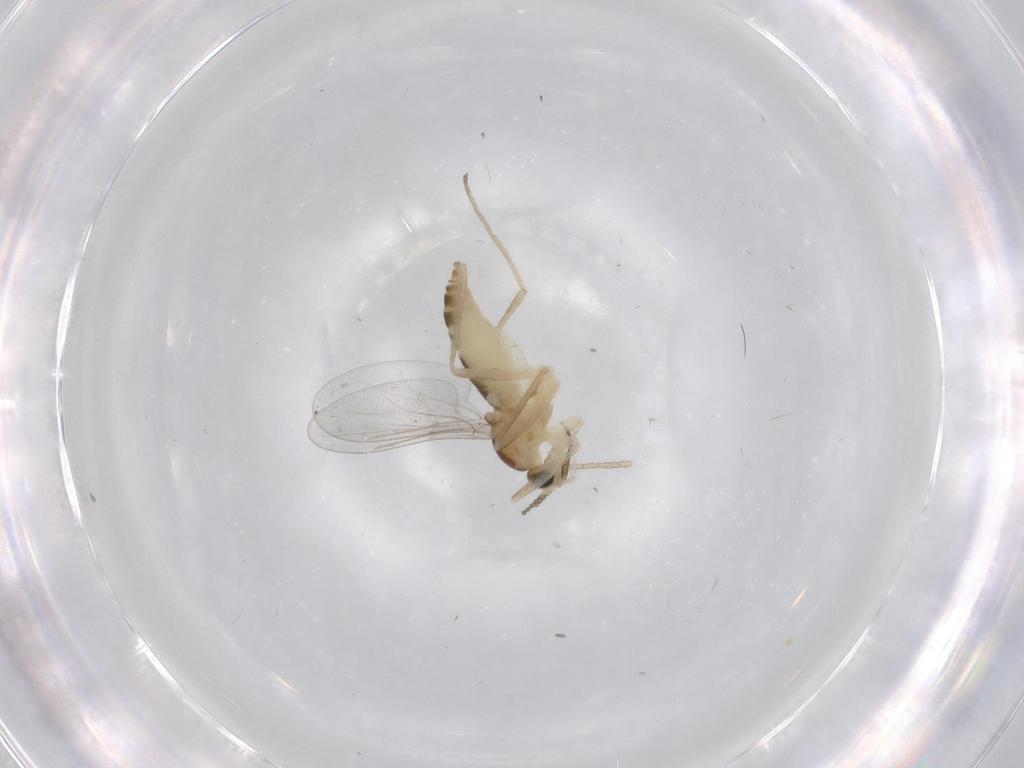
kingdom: Animalia
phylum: Arthropoda
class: Insecta
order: Diptera
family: Cecidomyiidae
